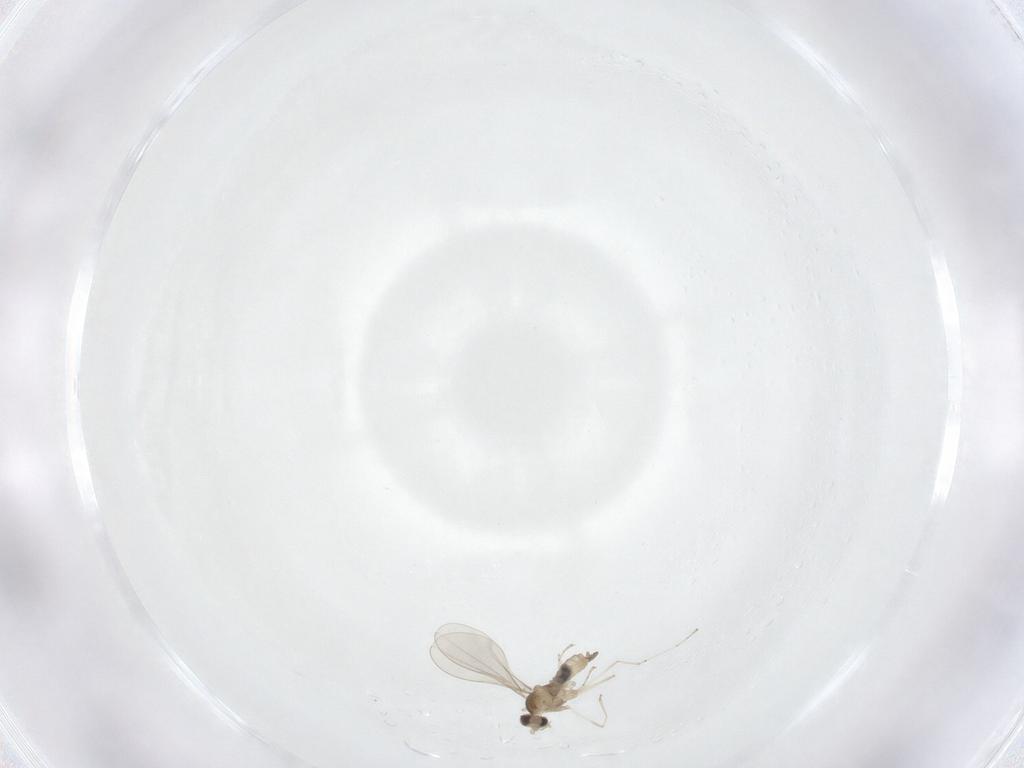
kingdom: Animalia
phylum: Arthropoda
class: Insecta
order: Diptera
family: Cecidomyiidae
